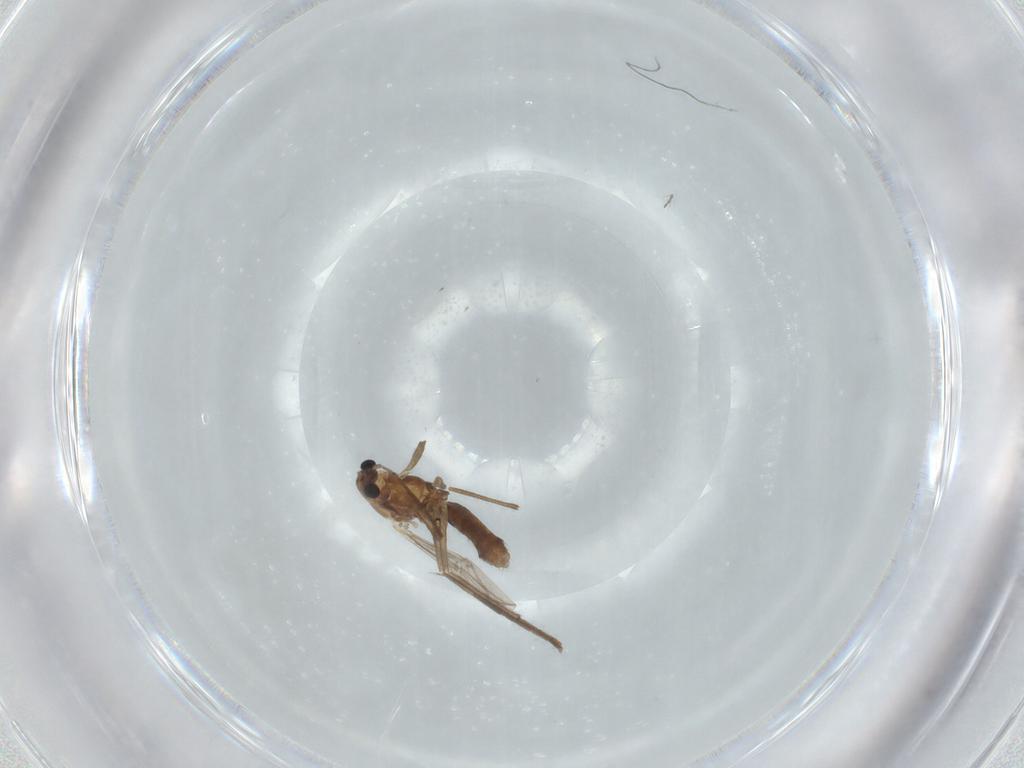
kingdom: Animalia
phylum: Arthropoda
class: Insecta
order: Diptera
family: Chironomidae
